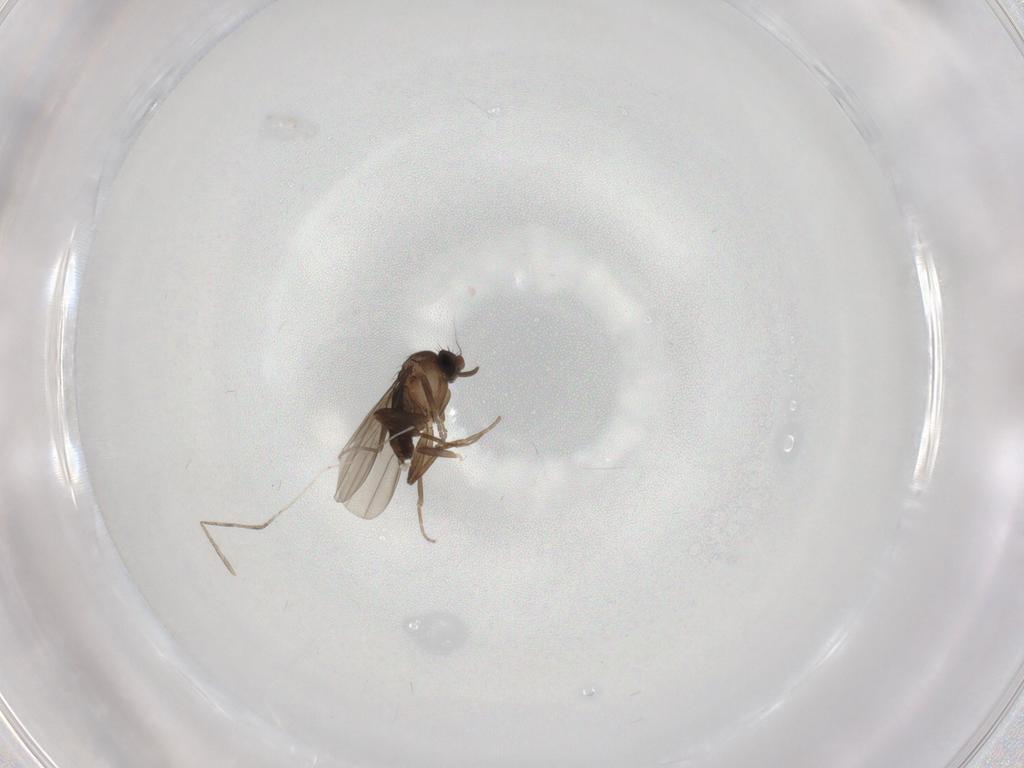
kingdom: Animalia
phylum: Arthropoda
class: Insecta
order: Diptera
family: Phoridae
